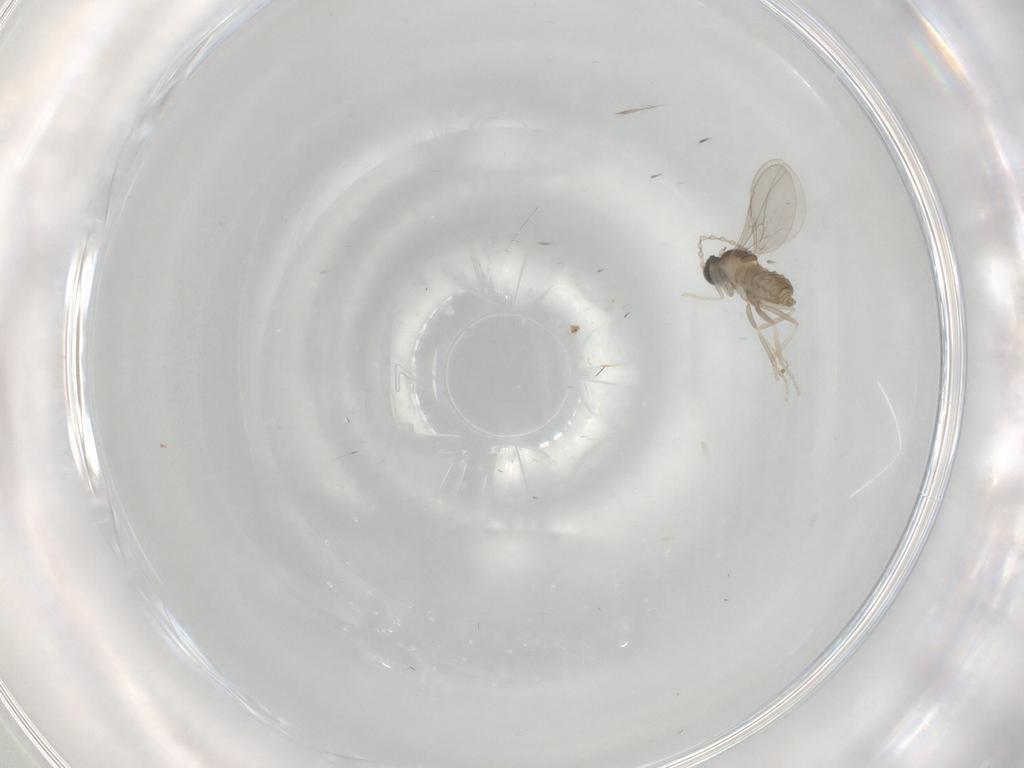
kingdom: Animalia
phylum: Arthropoda
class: Insecta
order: Diptera
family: Cecidomyiidae
